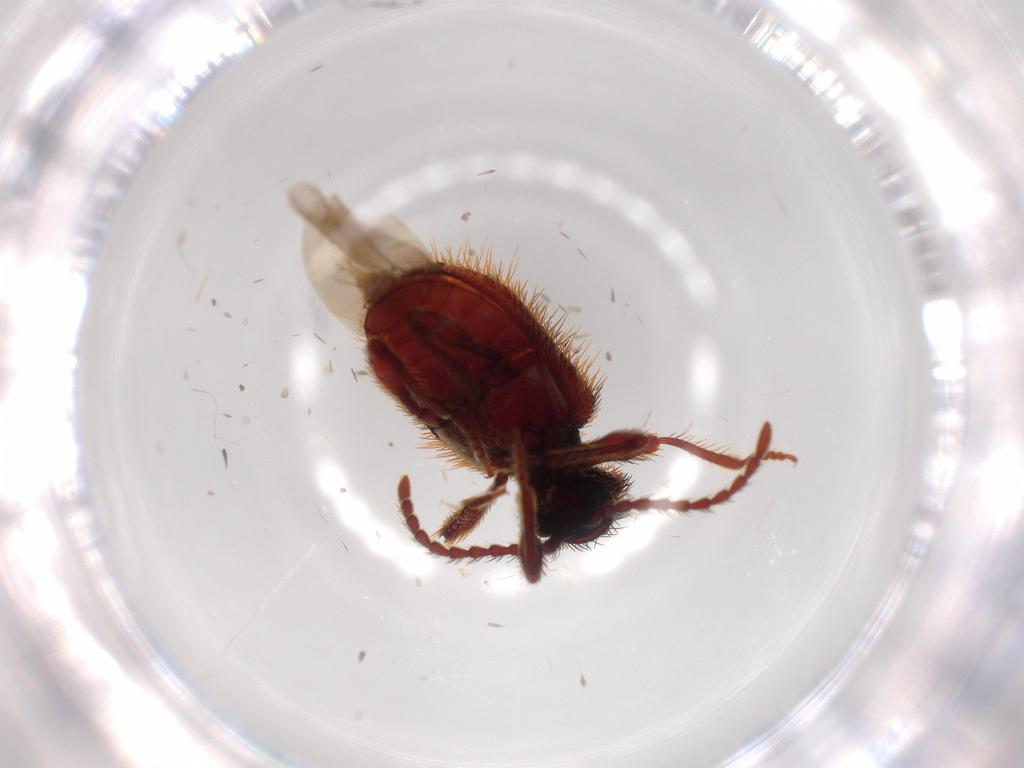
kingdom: Animalia
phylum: Arthropoda
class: Insecta
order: Coleoptera
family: Chrysomelidae
